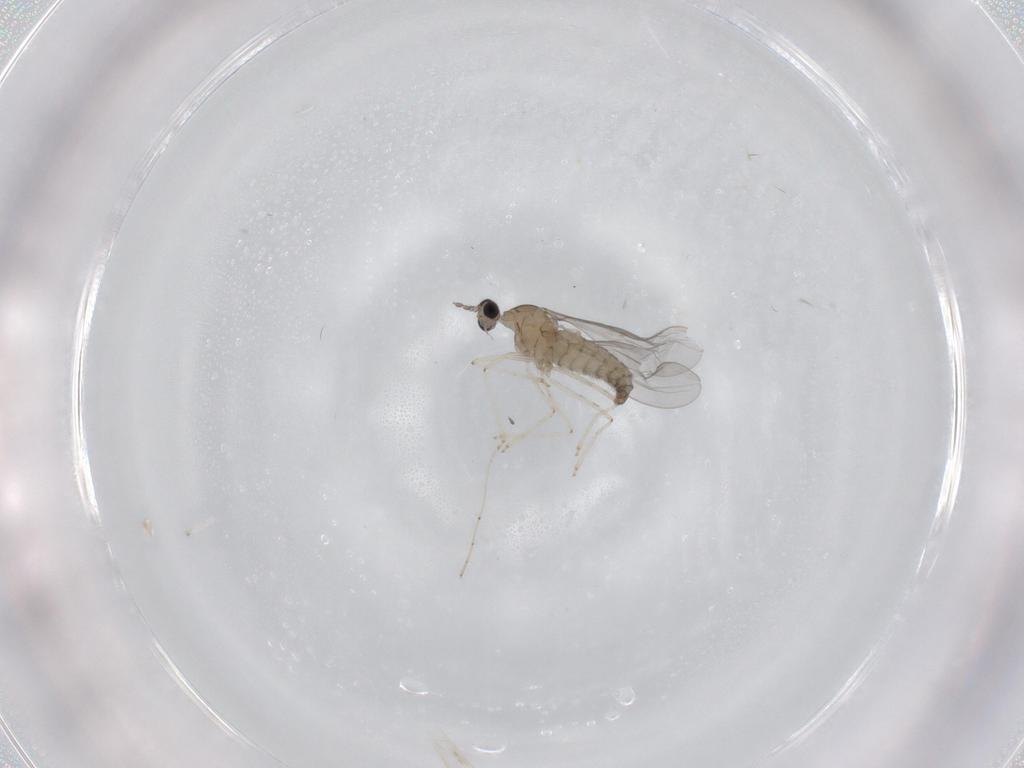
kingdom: Animalia
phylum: Arthropoda
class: Insecta
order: Diptera
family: Cecidomyiidae
